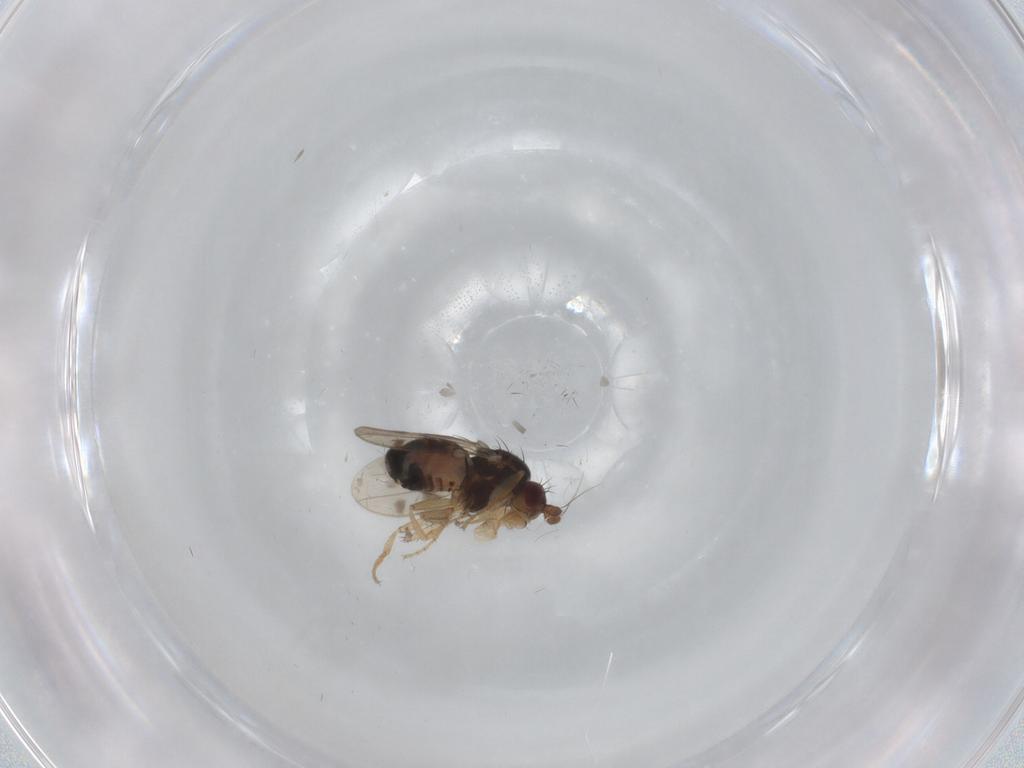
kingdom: Animalia
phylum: Arthropoda
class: Insecta
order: Diptera
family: Sphaeroceridae
